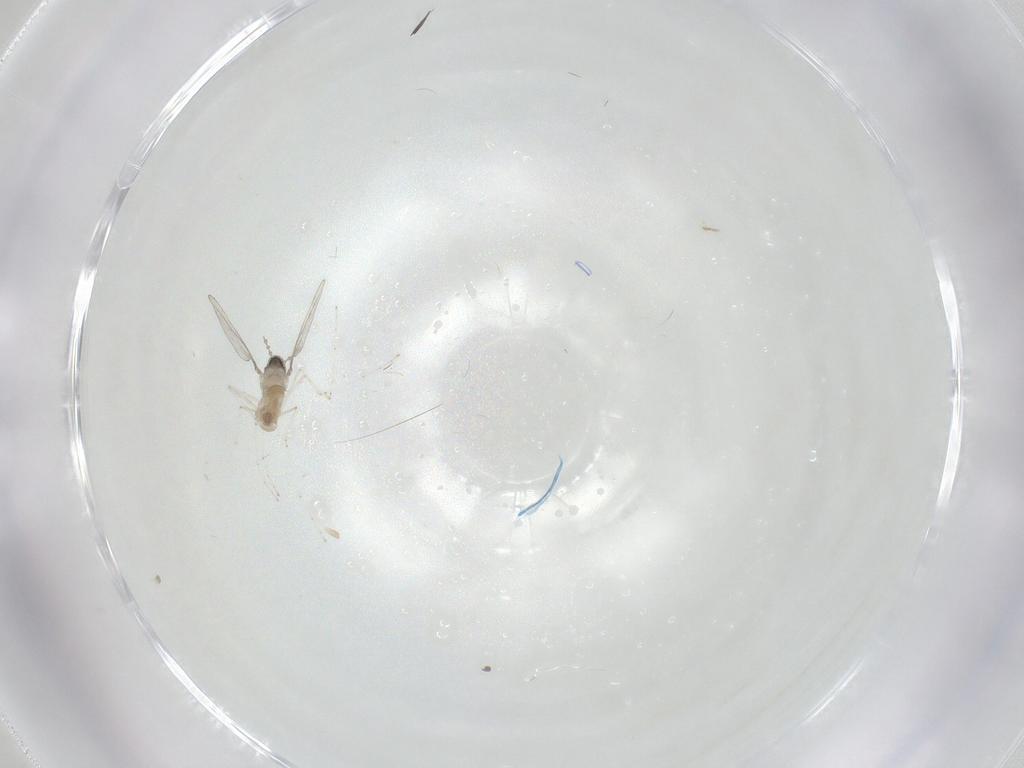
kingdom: Animalia
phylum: Arthropoda
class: Insecta
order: Diptera
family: Cecidomyiidae
